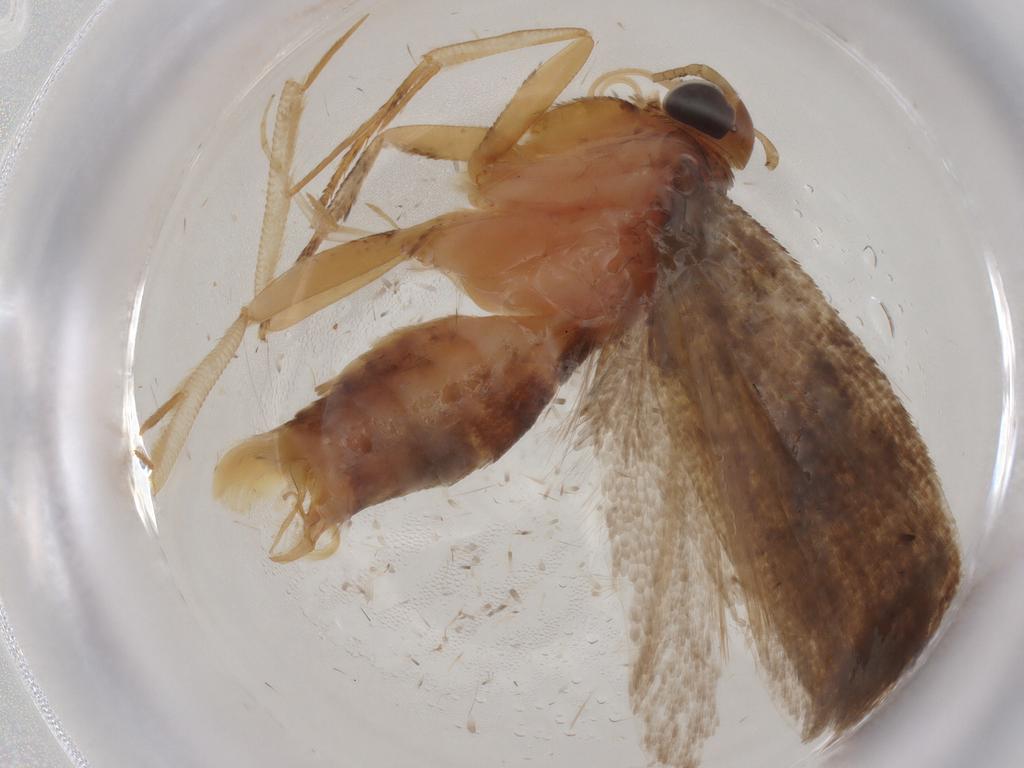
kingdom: Animalia
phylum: Arthropoda
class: Insecta
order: Lepidoptera
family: Gelechiidae
